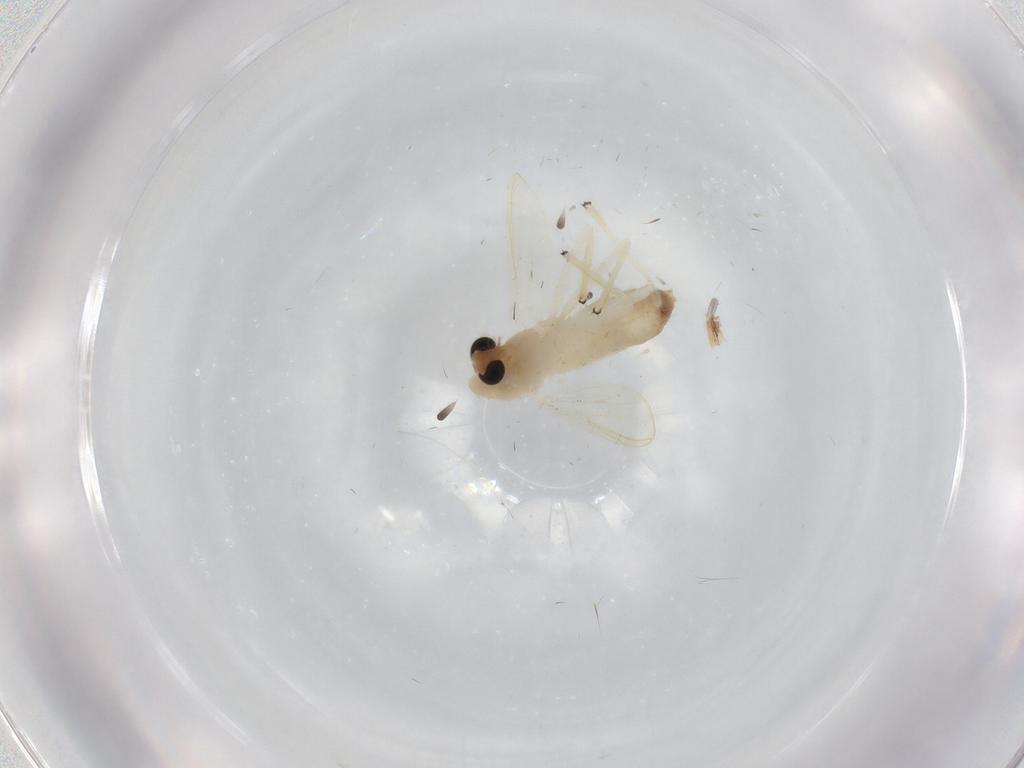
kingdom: Animalia
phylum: Arthropoda
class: Insecta
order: Diptera
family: Chironomidae
